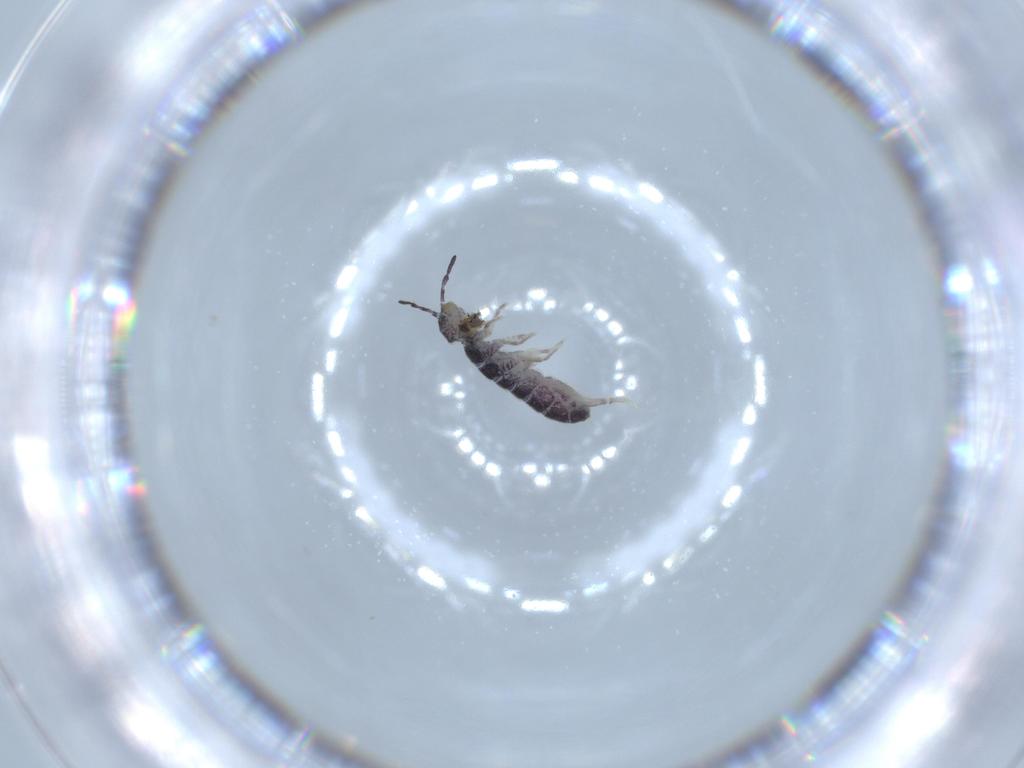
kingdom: Animalia
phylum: Arthropoda
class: Collembola
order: Entomobryomorpha
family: Isotomidae
